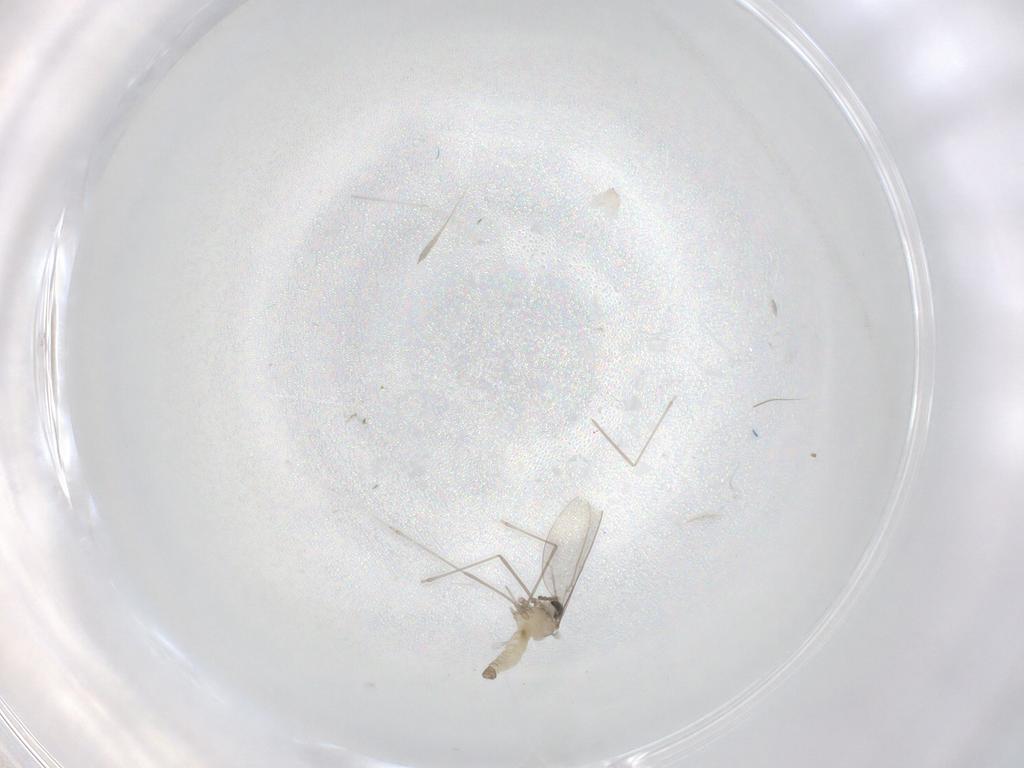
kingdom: Animalia
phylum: Arthropoda
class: Insecta
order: Diptera
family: Cecidomyiidae
